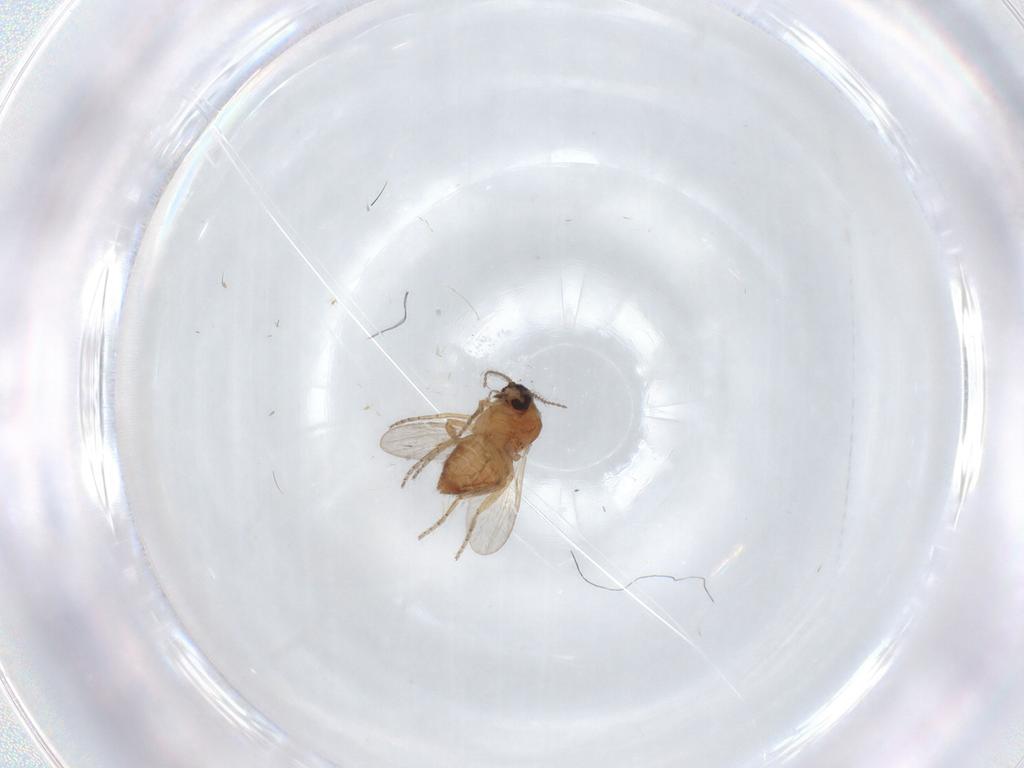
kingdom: Animalia
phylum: Arthropoda
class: Insecta
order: Diptera
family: Ceratopogonidae
